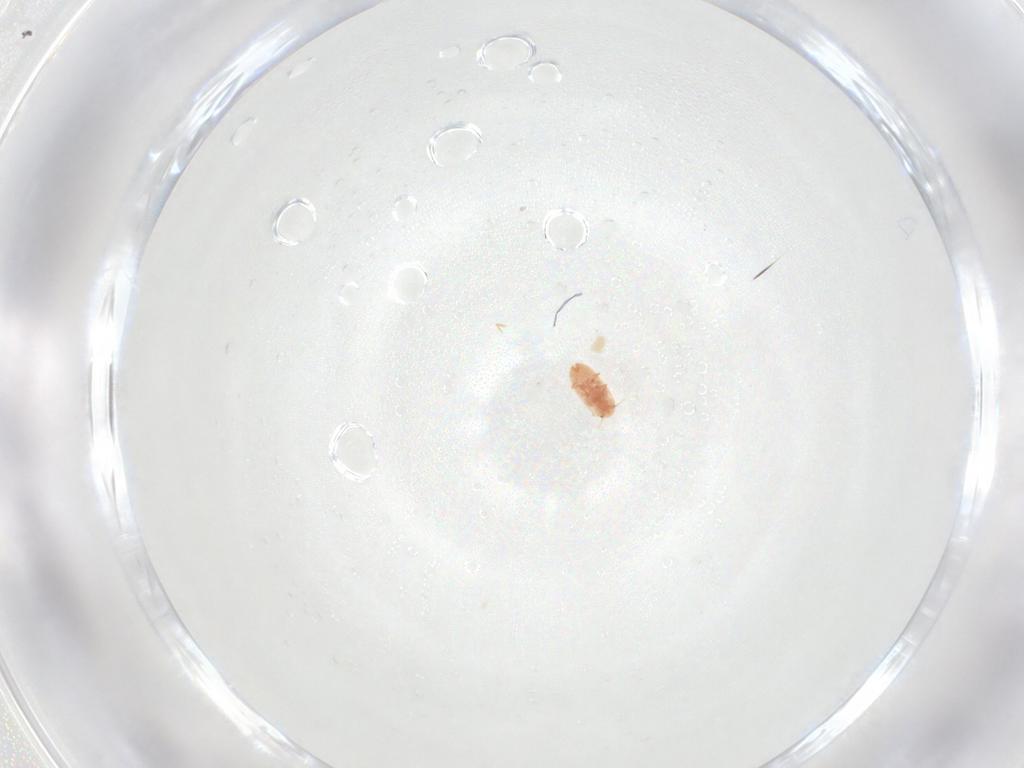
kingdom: Animalia
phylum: Arthropoda
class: Insecta
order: Hemiptera
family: Coccidae
